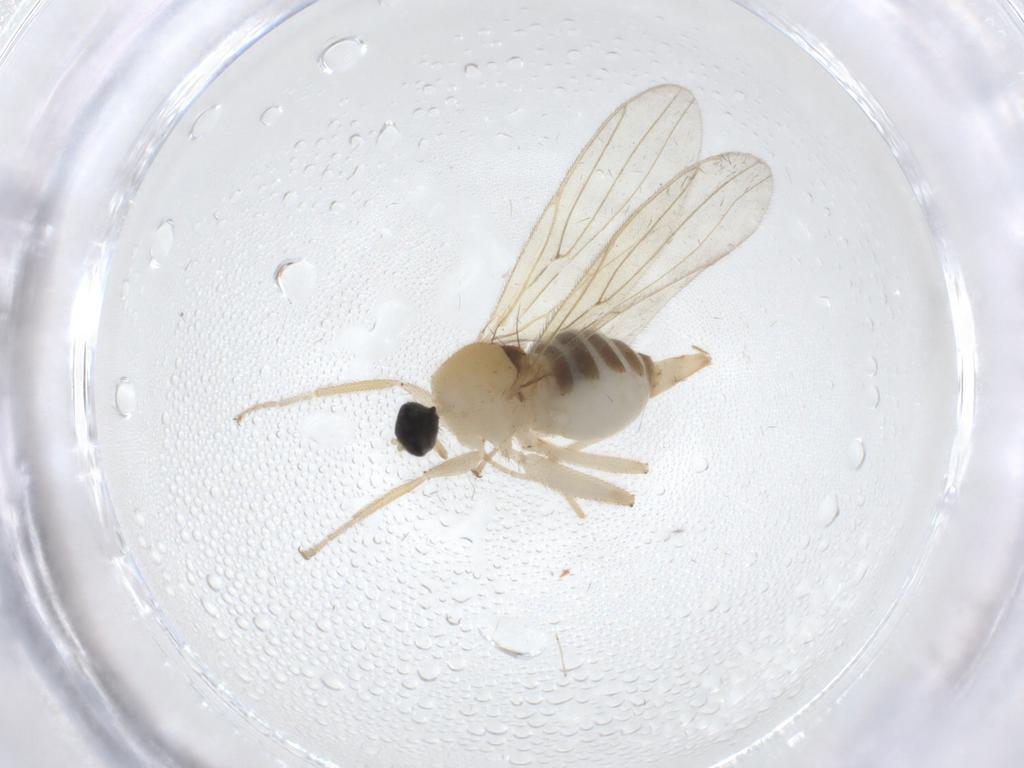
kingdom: Animalia
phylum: Arthropoda
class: Insecta
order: Diptera
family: Hybotidae
